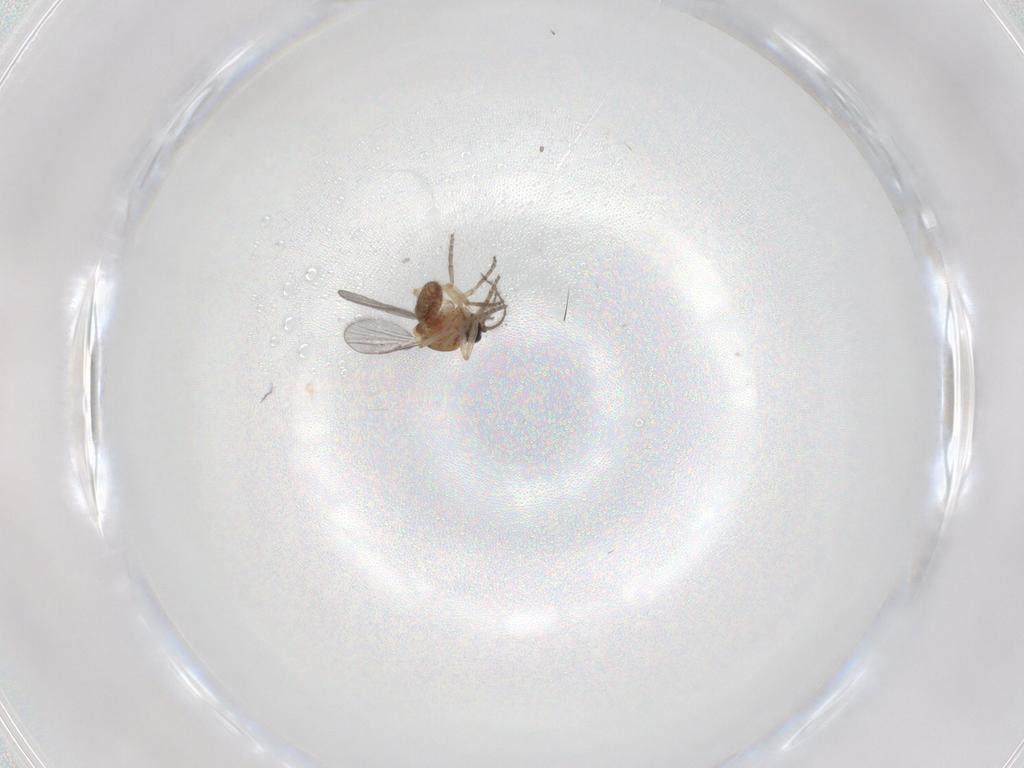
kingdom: Animalia
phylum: Arthropoda
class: Insecta
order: Diptera
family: Ceratopogonidae
